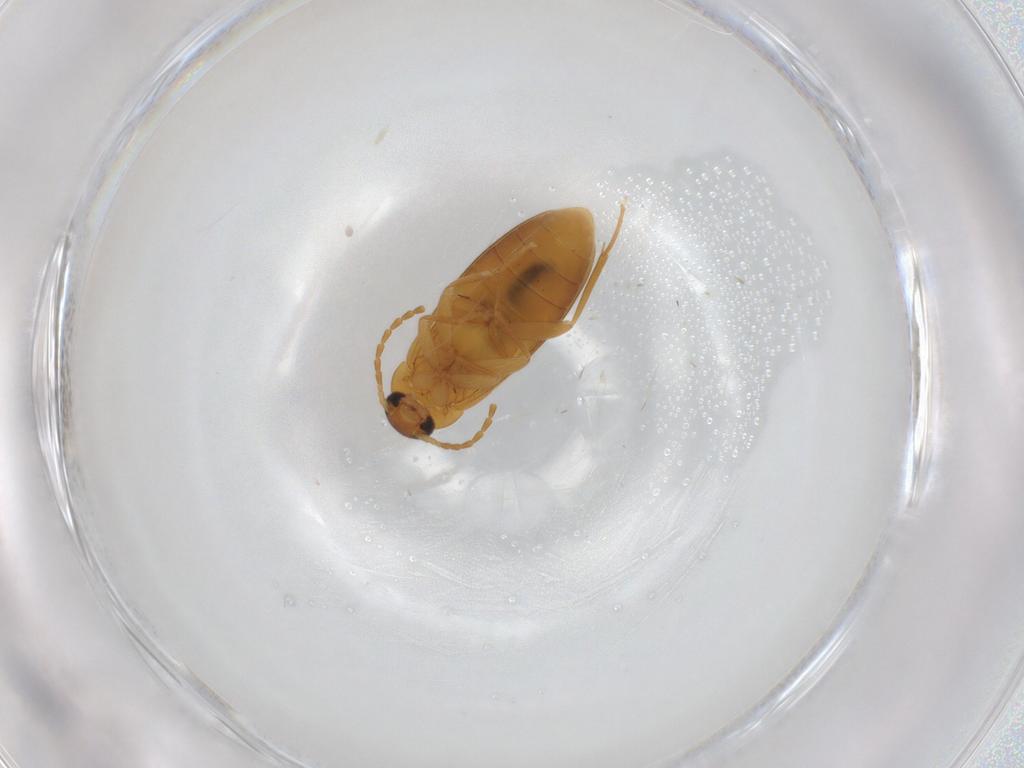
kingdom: Animalia
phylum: Arthropoda
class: Insecta
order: Coleoptera
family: Scraptiidae
